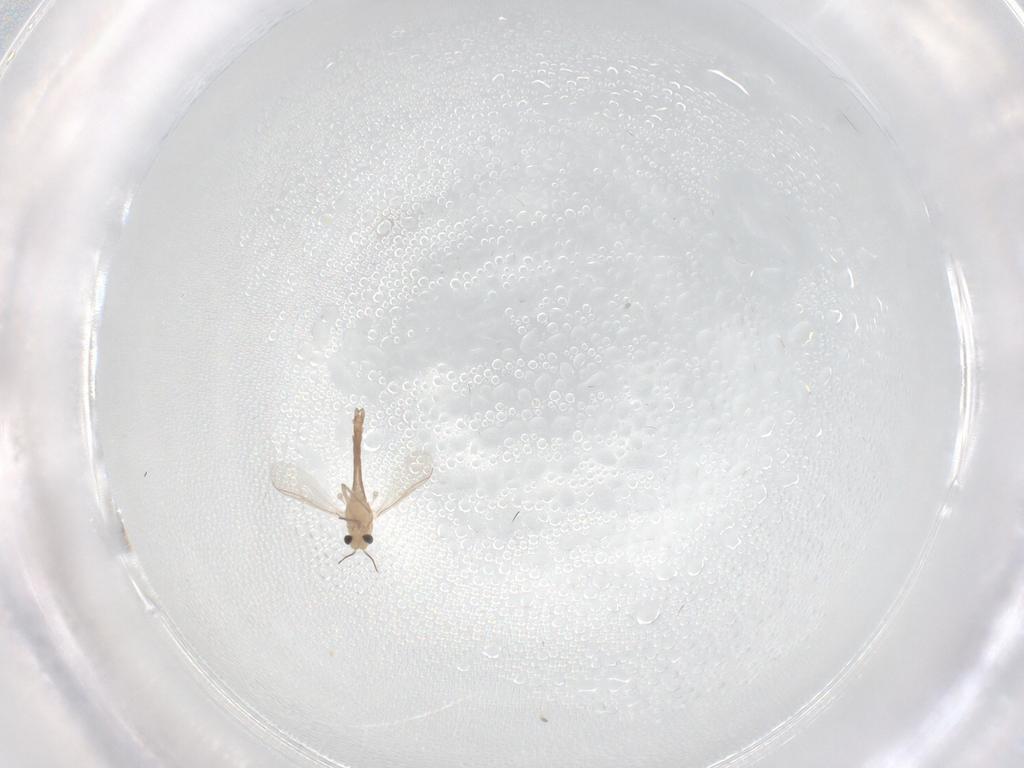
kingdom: Animalia
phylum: Arthropoda
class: Insecta
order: Diptera
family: Chironomidae
